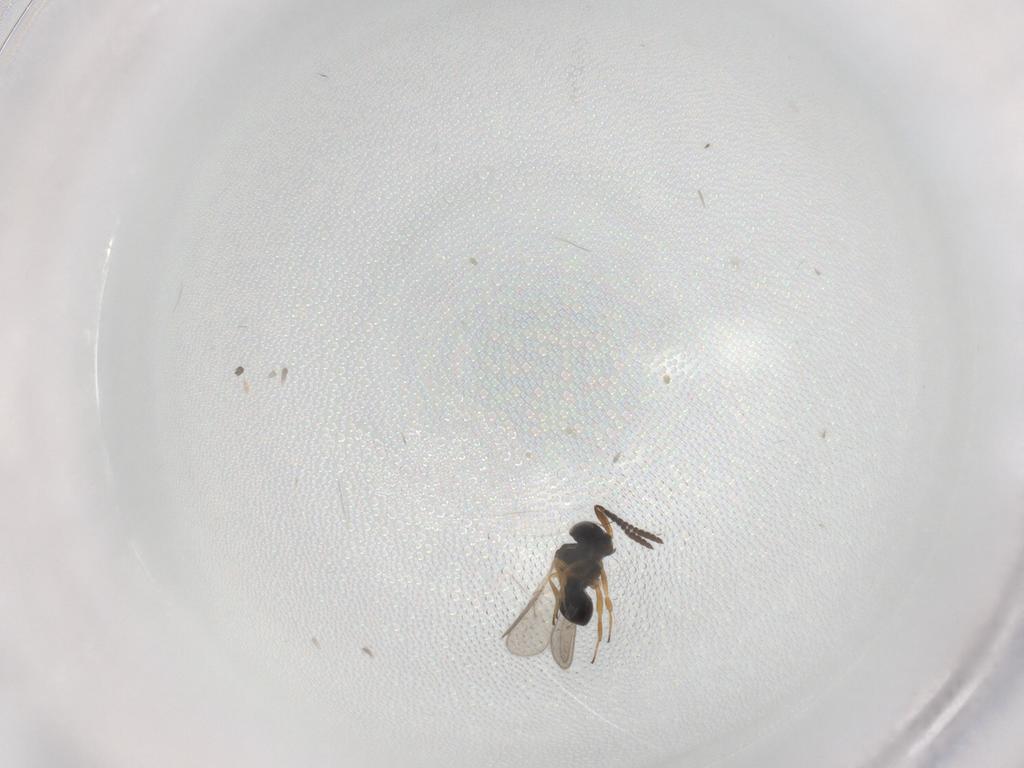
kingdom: Animalia
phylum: Arthropoda
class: Insecta
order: Hymenoptera
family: Scelionidae
